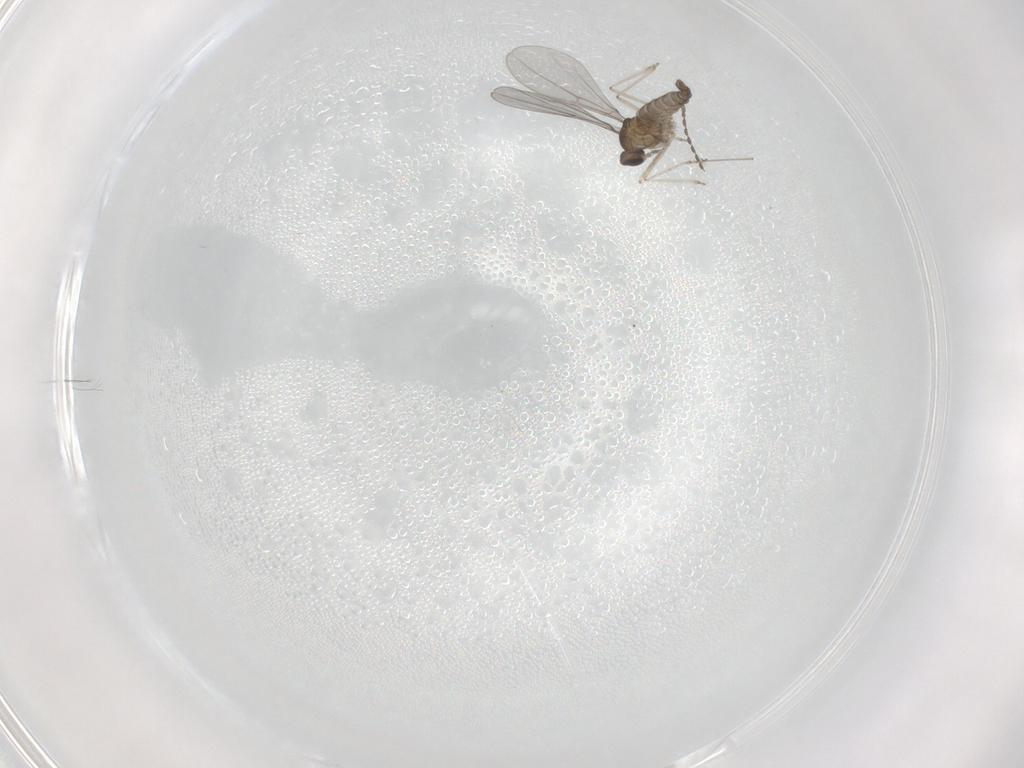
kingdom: Animalia
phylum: Arthropoda
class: Insecta
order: Diptera
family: Cecidomyiidae
